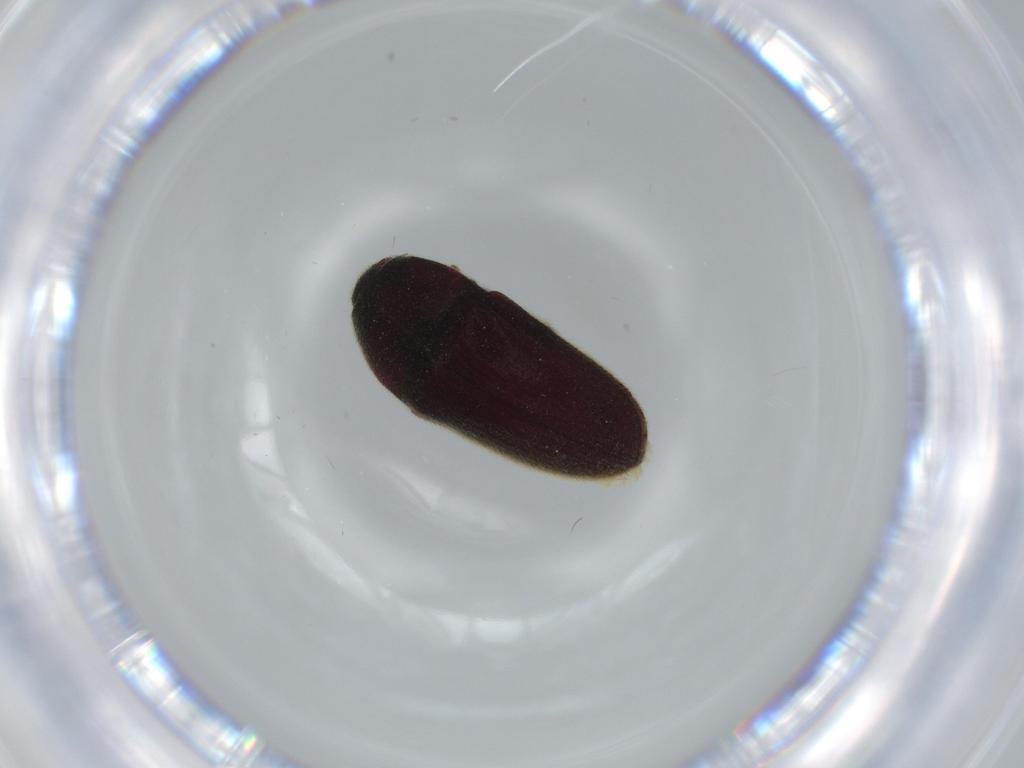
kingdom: Animalia
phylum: Arthropoda
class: Insecta
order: Coleoptera
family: Throscidae
